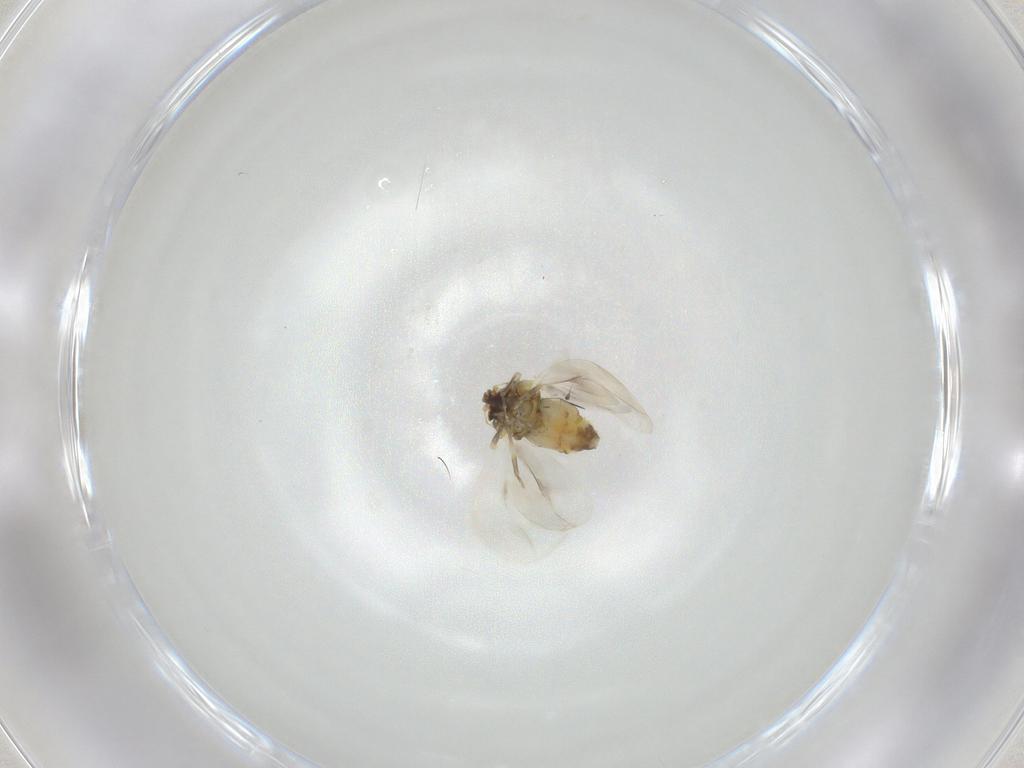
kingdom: Animalia
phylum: Arthropoda
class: Insecta
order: Hemiptera
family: Aleyrodidae
